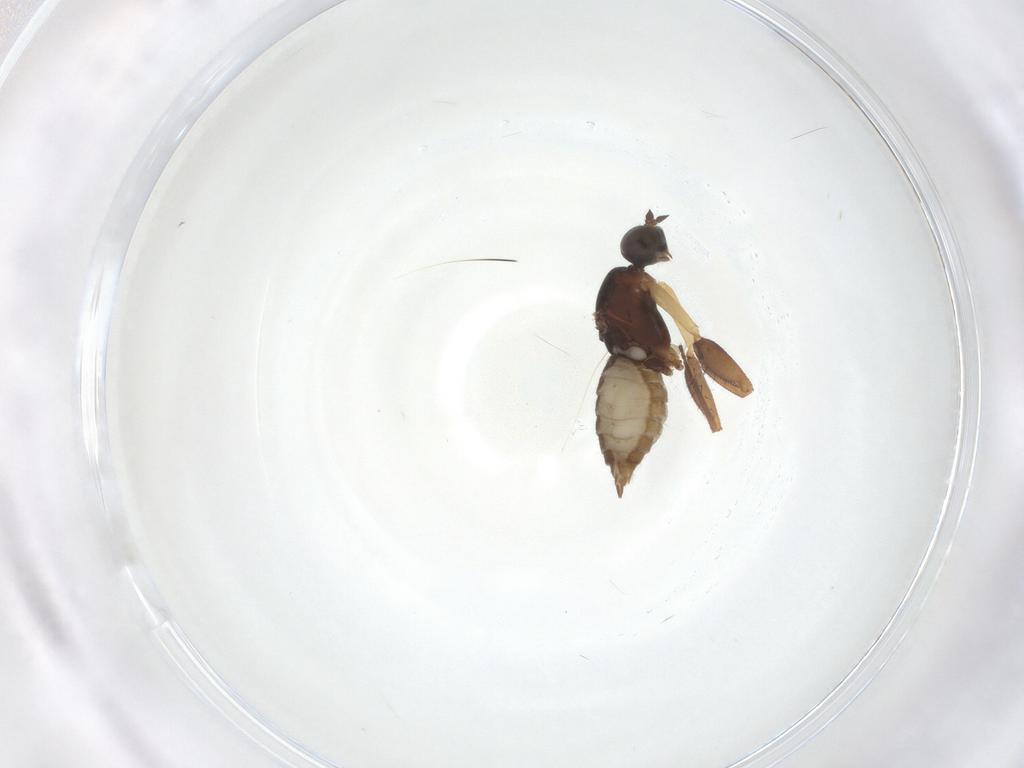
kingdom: Animalia
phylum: Arthropoda
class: Insecta
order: Diptera
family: Empididae
